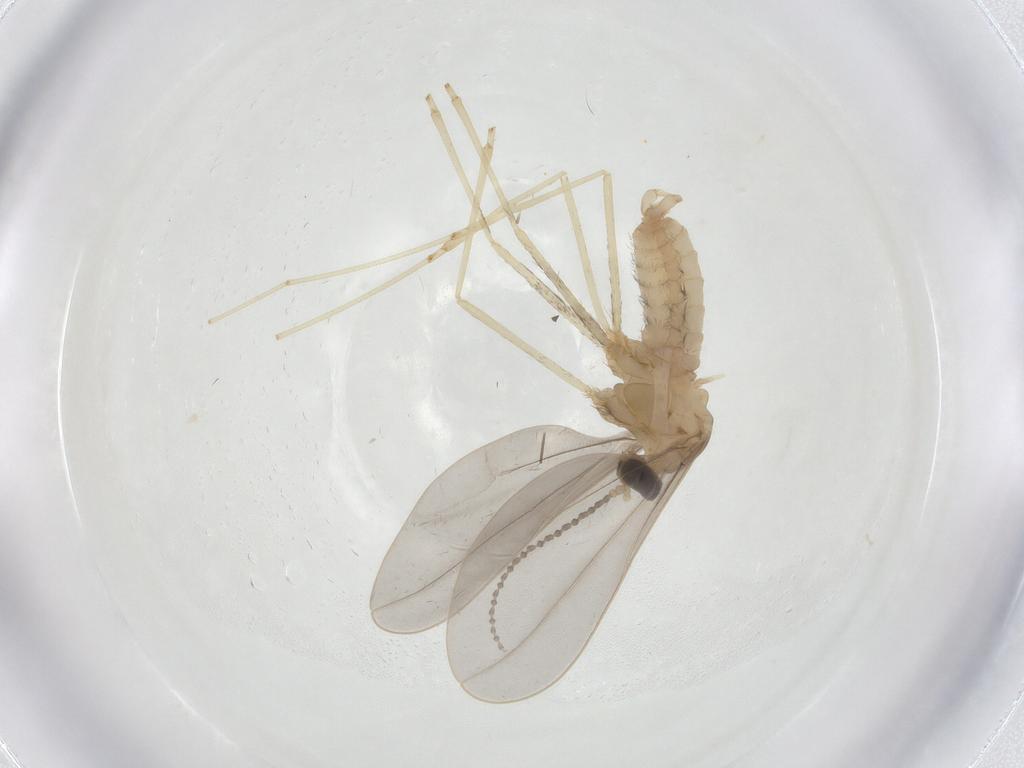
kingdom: Animalia
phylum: Arthropoda
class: Insecta
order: Diptera
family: Cecidomyiidae
